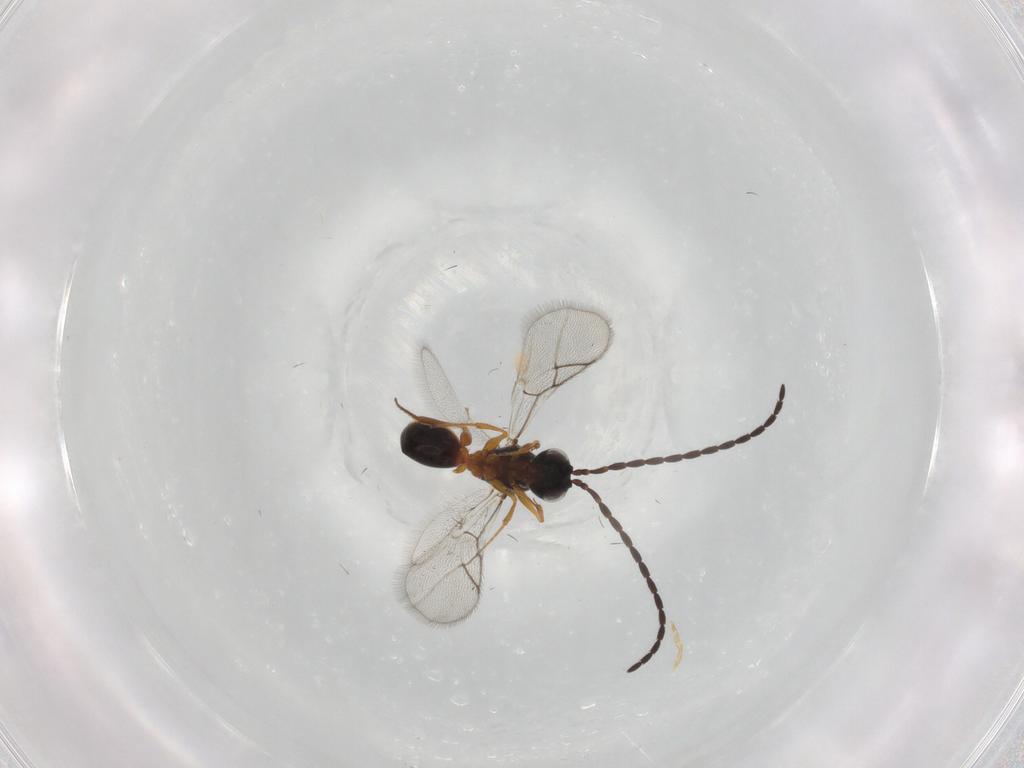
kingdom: Animalia
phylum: Arthropoda
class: Insecta
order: Hymenoptera
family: Figitidae
